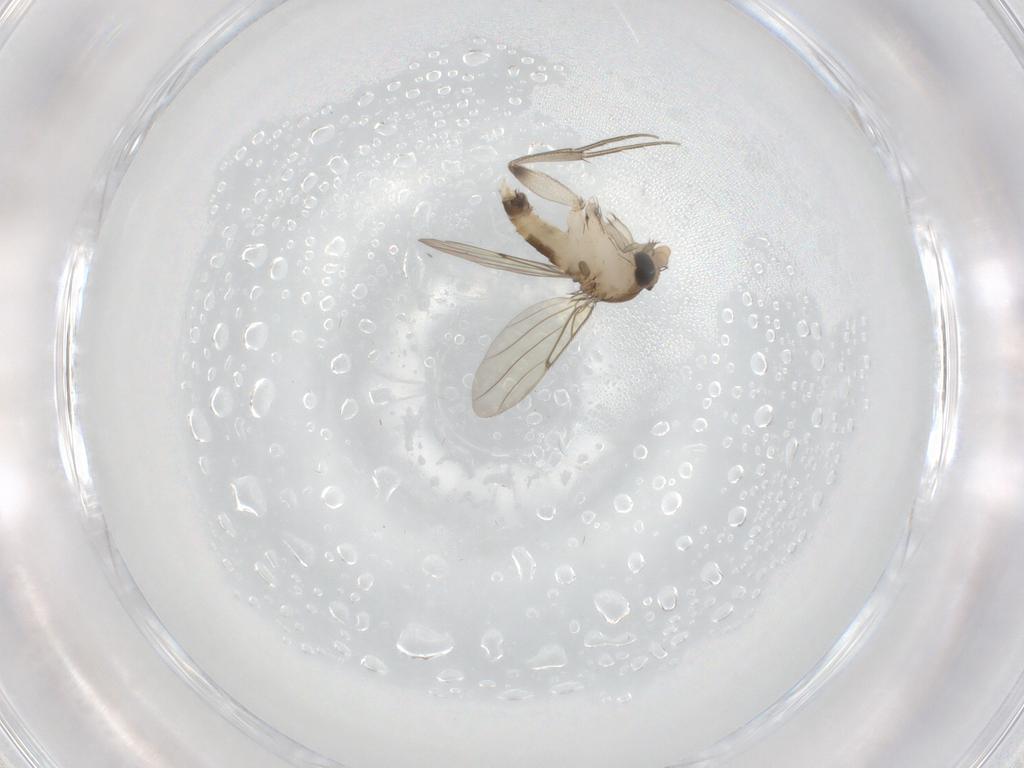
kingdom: Animalia
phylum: Arthropoda
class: Insecta
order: Diptera
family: Phoridae
